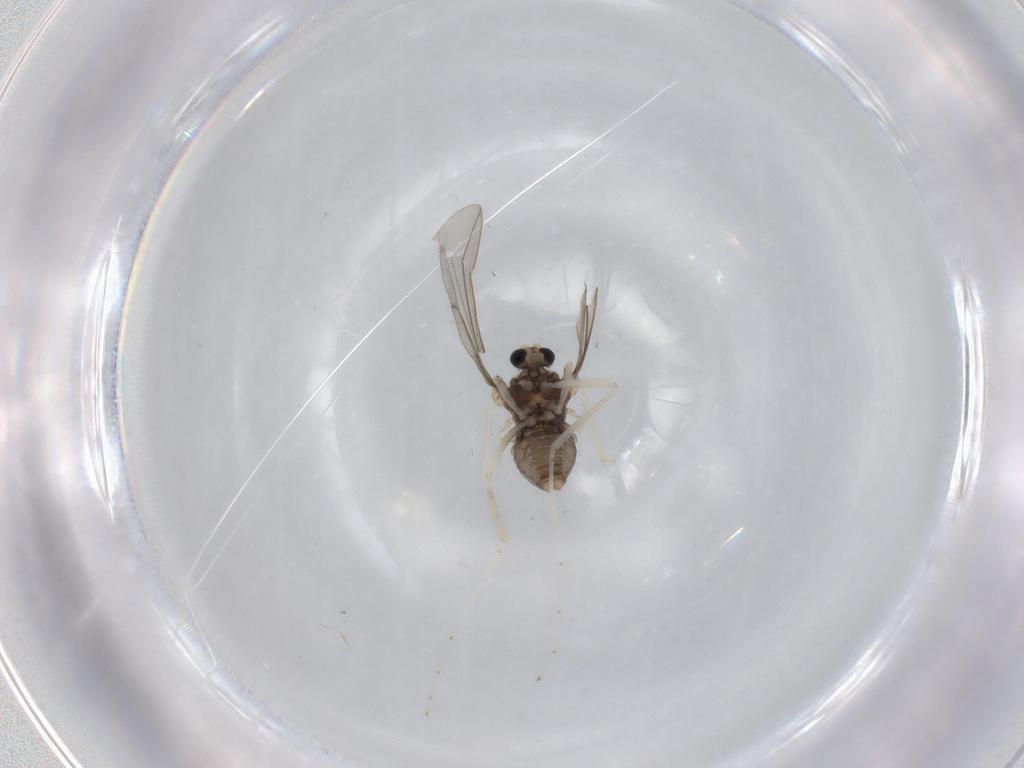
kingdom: Animalia
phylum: Arthropoda
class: Insecta
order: Diptera
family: Cecidomyiidae
